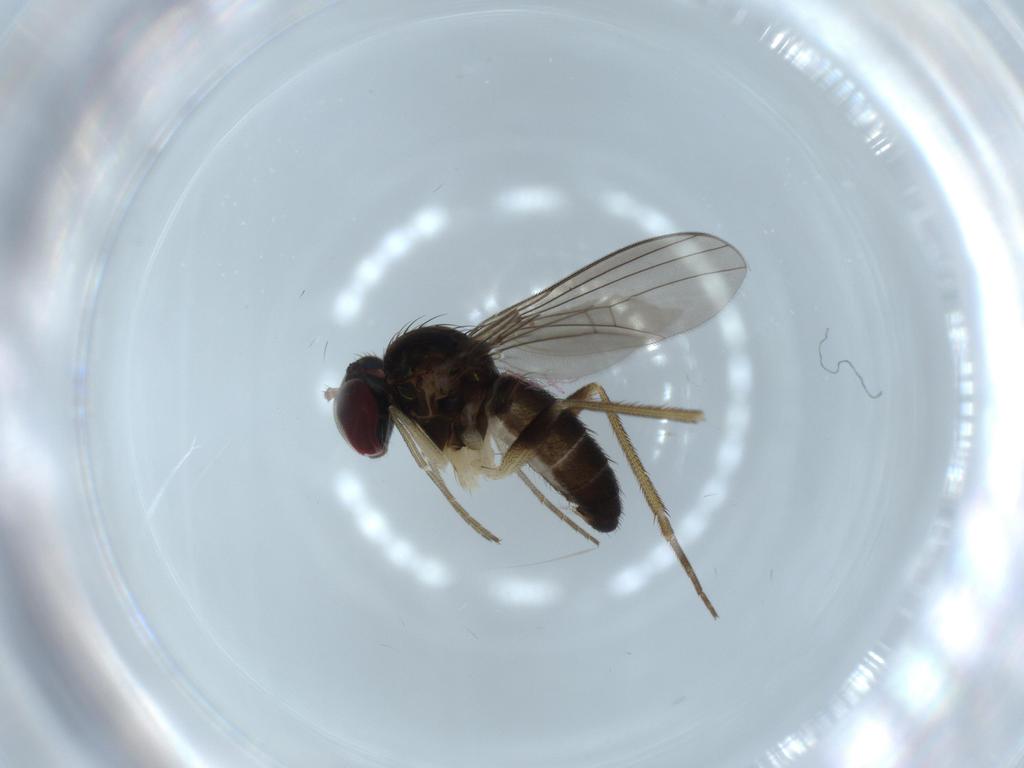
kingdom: Animalia
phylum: Arthropoda
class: Insecta
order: Diptera
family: Dolichopodidae
